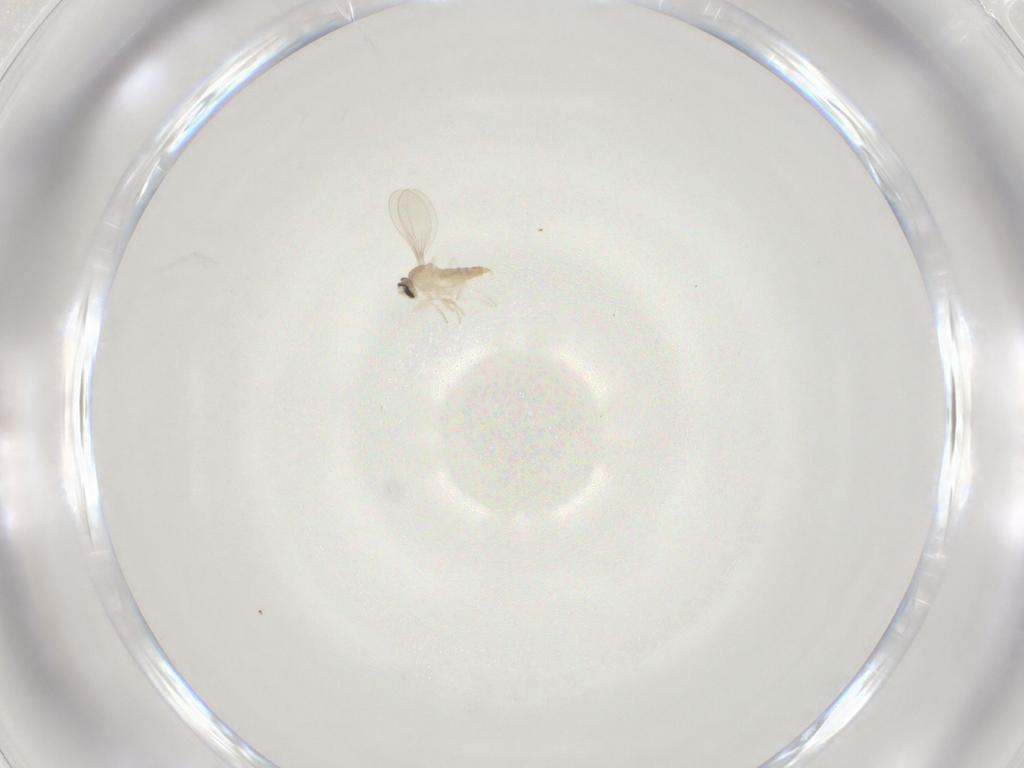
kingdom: Animalia
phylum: Arthropoda
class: Insecta
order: Diptera
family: Cecidomyiidae
